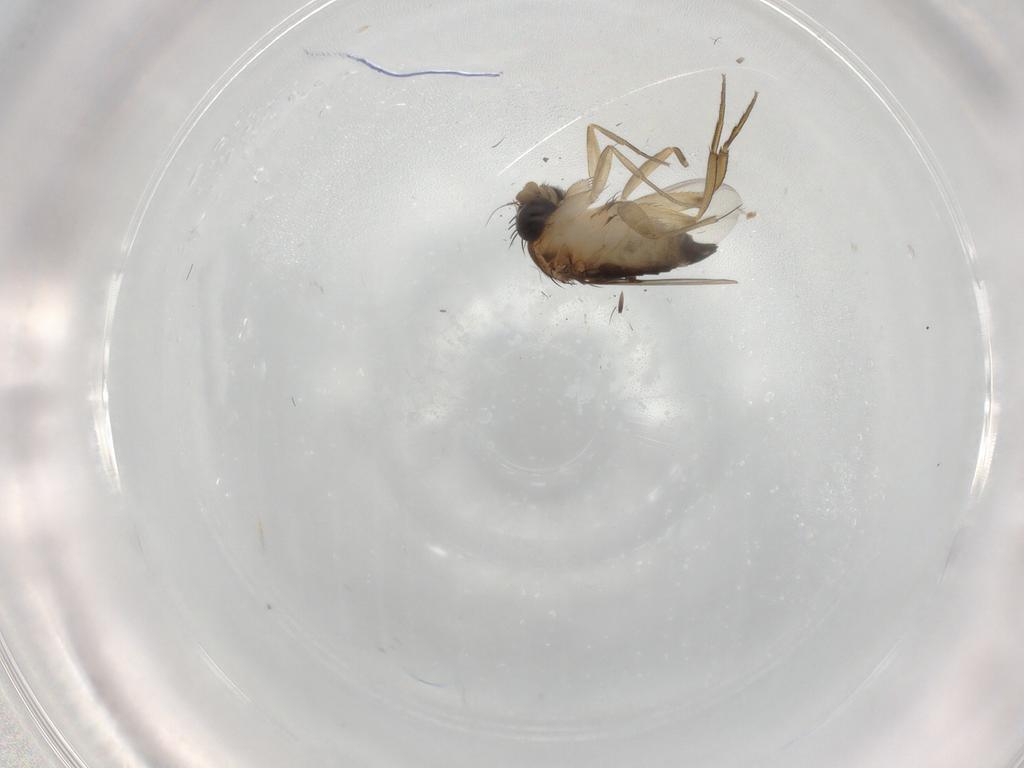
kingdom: Animalia
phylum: Arthropoda
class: Insecta
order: Diptera
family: Phoridae
